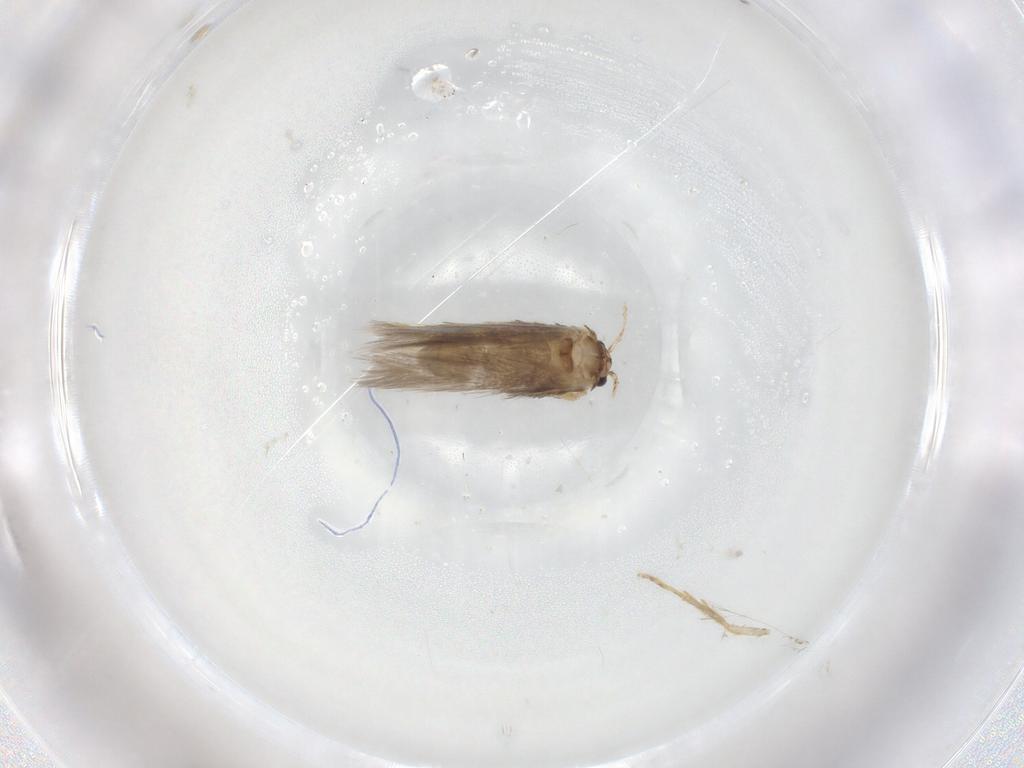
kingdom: Animalia
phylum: Arthropoda
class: Insecta
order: Lepidoptera
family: Nepticulidae
